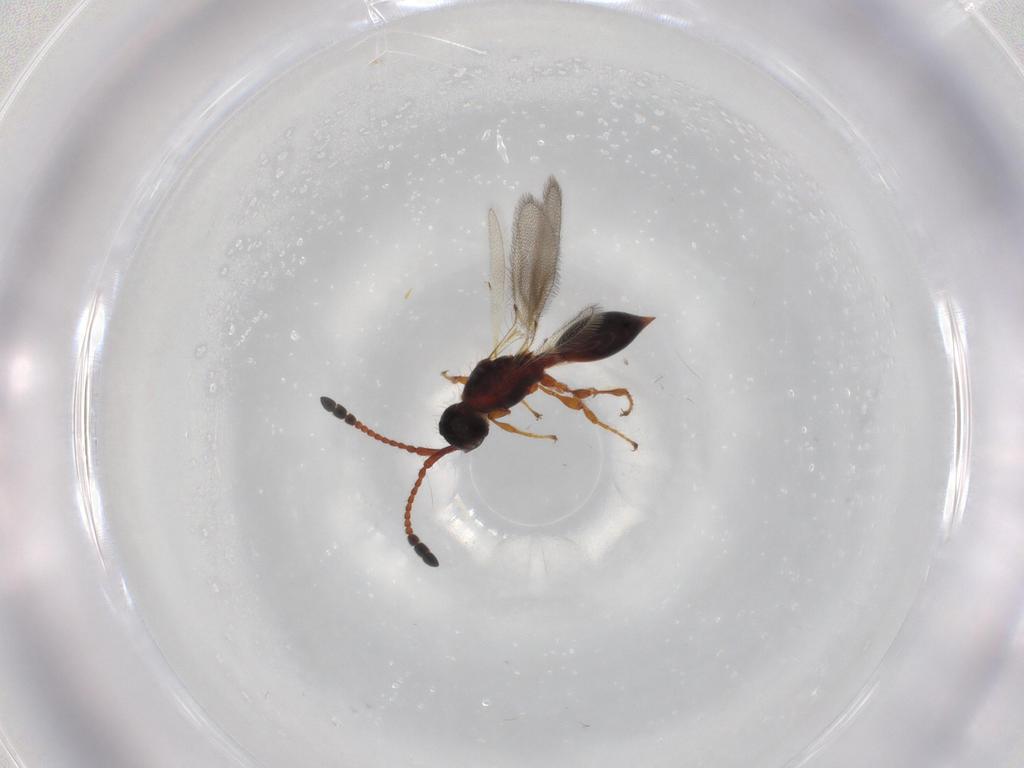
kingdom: Animalia
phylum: Arthropoda
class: Insecta
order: Hymenoptera
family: Diapriidae
